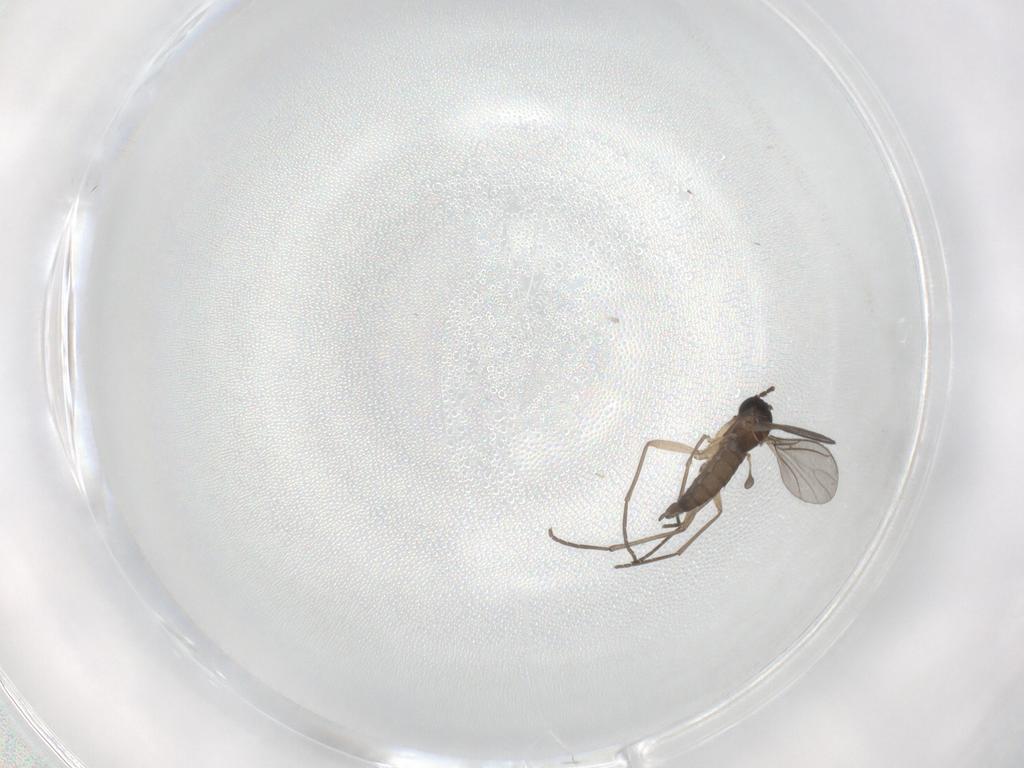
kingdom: Animalia
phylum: Arthropoda
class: Insecta
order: Diptera
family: Sciaridae
